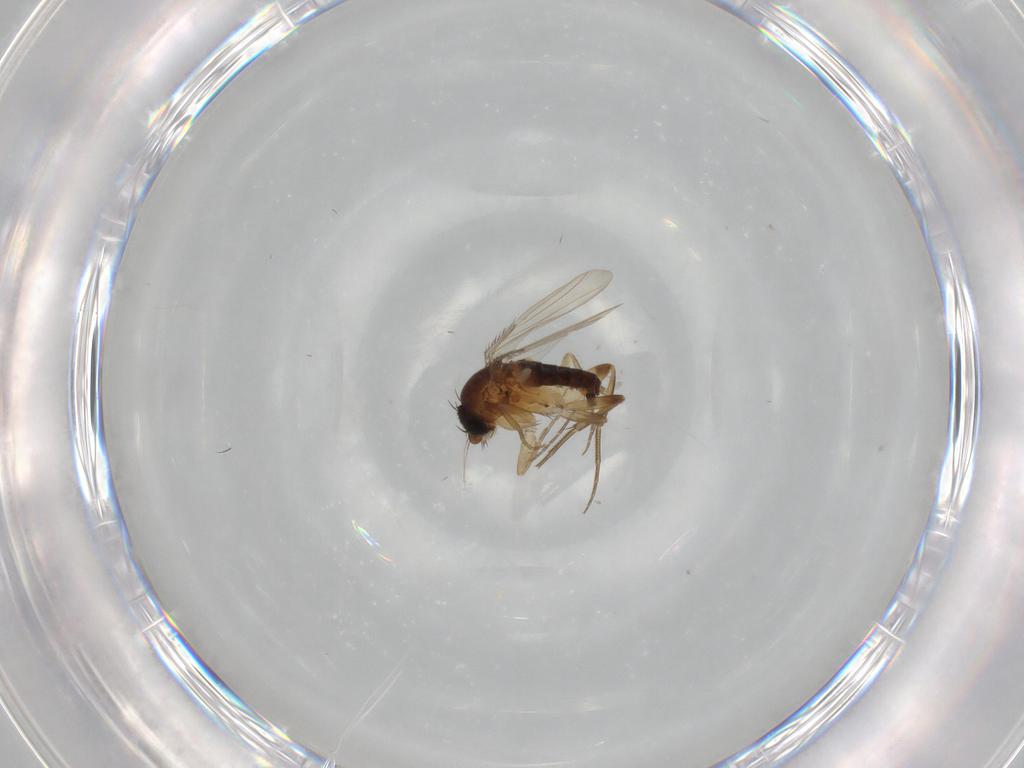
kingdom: Animalia
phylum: Arthropoda
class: Insecta
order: Diptera
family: Phoridae
